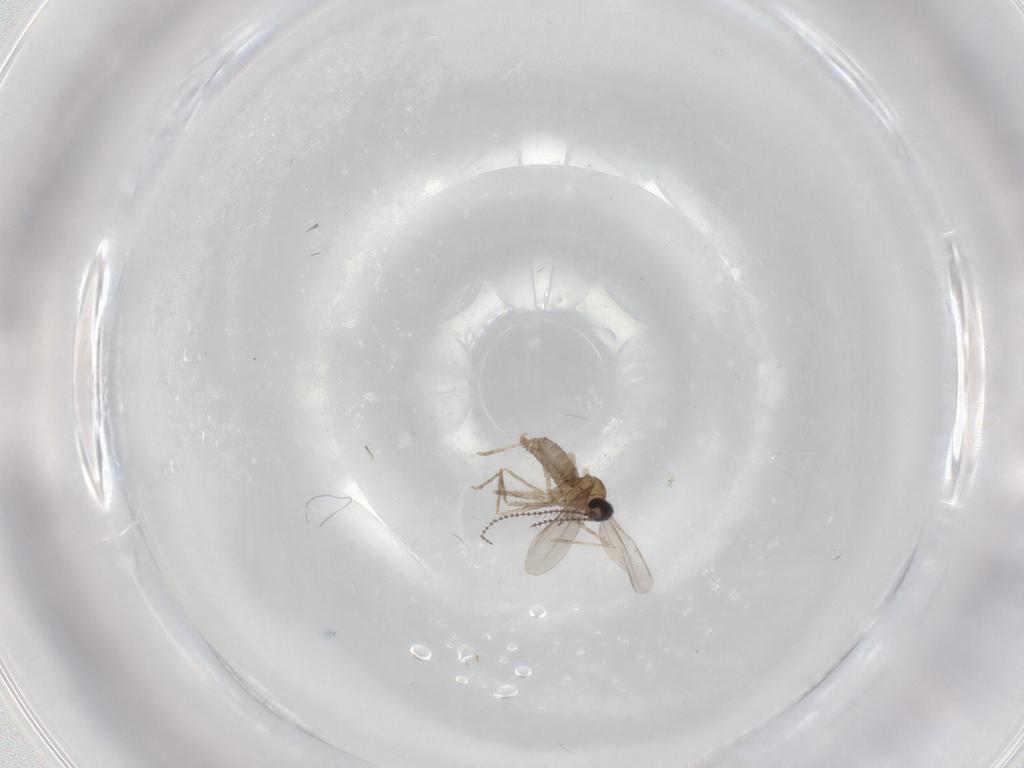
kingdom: Animalia
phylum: Arthropoda
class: Insecta
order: Diptera
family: Cecidomyiidae
